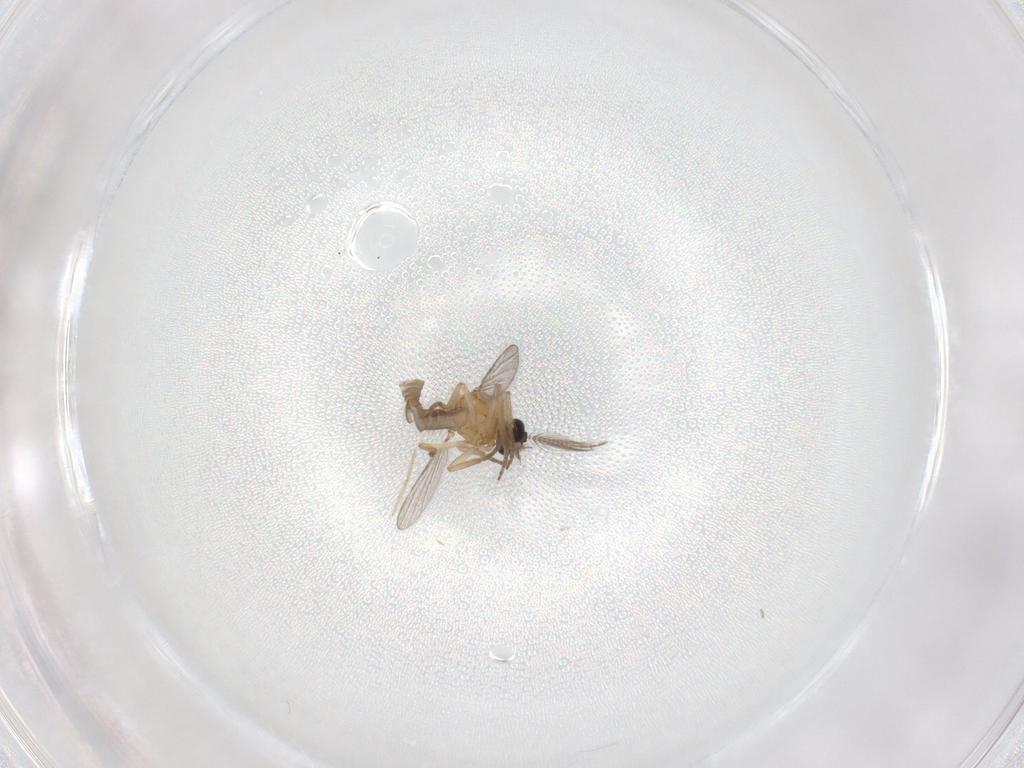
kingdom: Animalia
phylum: Arthropoda
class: Insecta
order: Diptera
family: Ceratopogonidae
